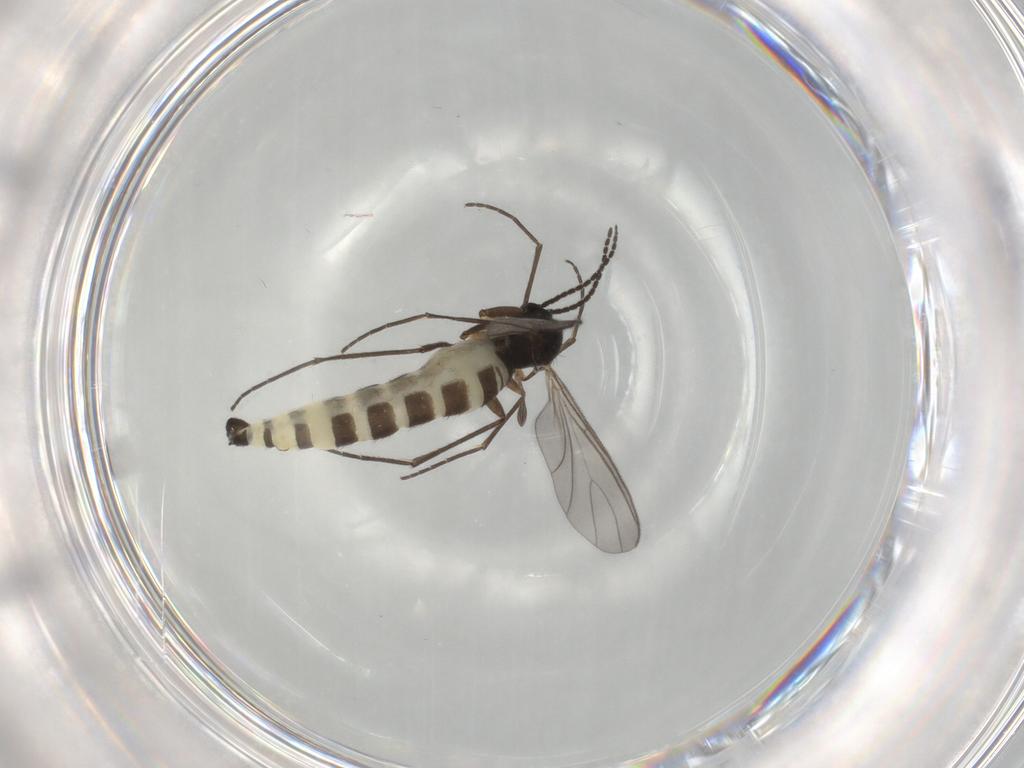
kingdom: Animalia
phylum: Arthropoda
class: Insecta
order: Diptera
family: Sciaridae
